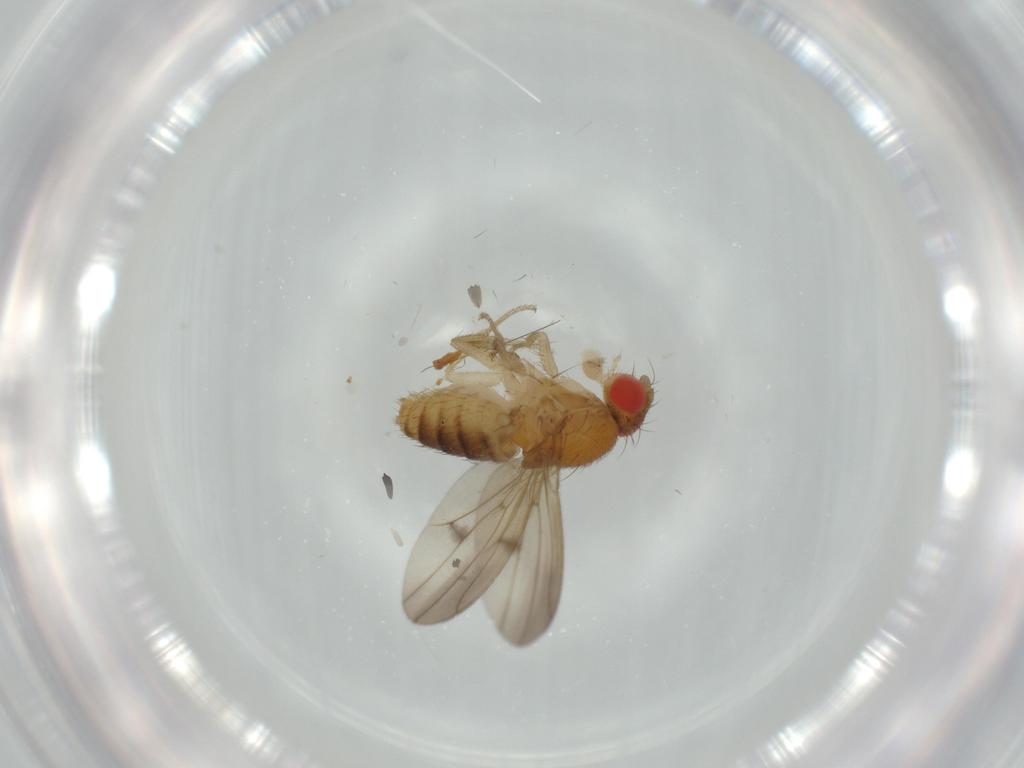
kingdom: Animalia
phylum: Arthropoda
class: Insecta
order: Diptera
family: Drosophilidae
